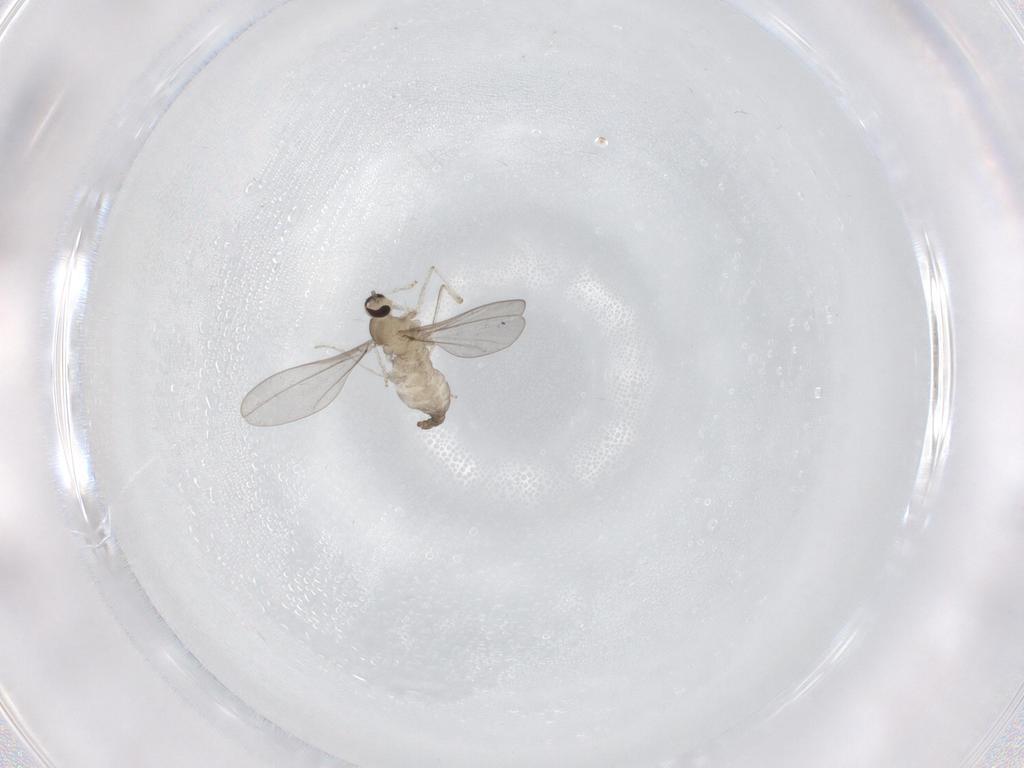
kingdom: Animalia
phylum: Arthropoda
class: Insecta
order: Diptera
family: Cecidomyiidae
